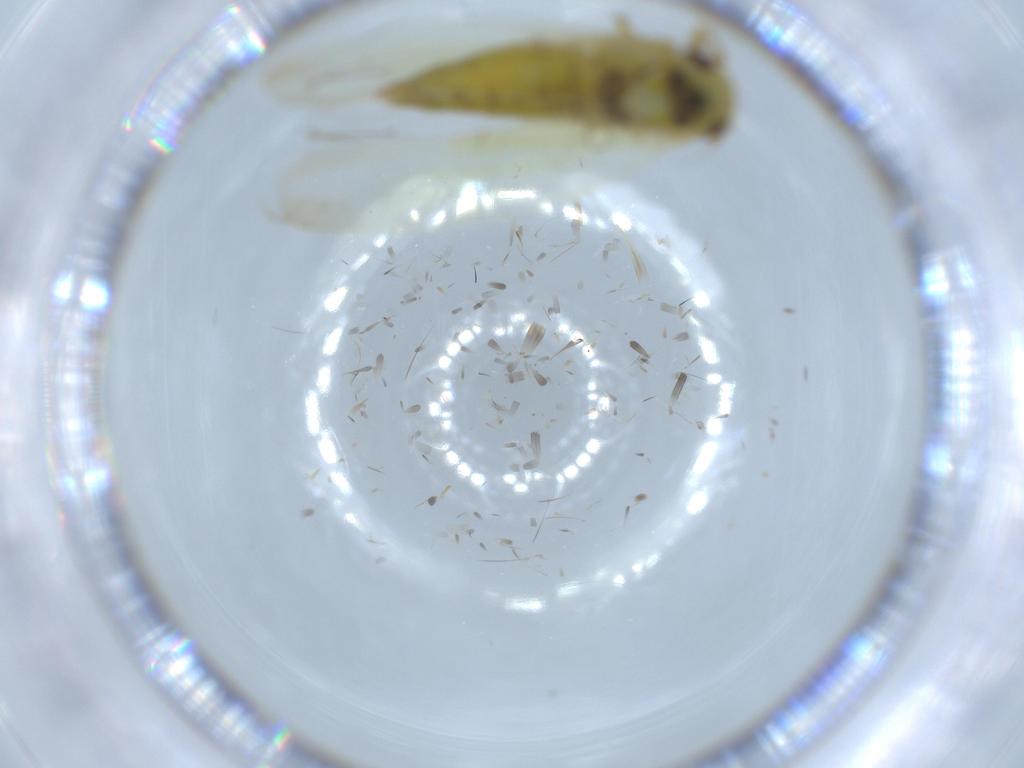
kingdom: Animalia
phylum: Arthropoda
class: Insecta
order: Hemiptera
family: Cicadellidae
